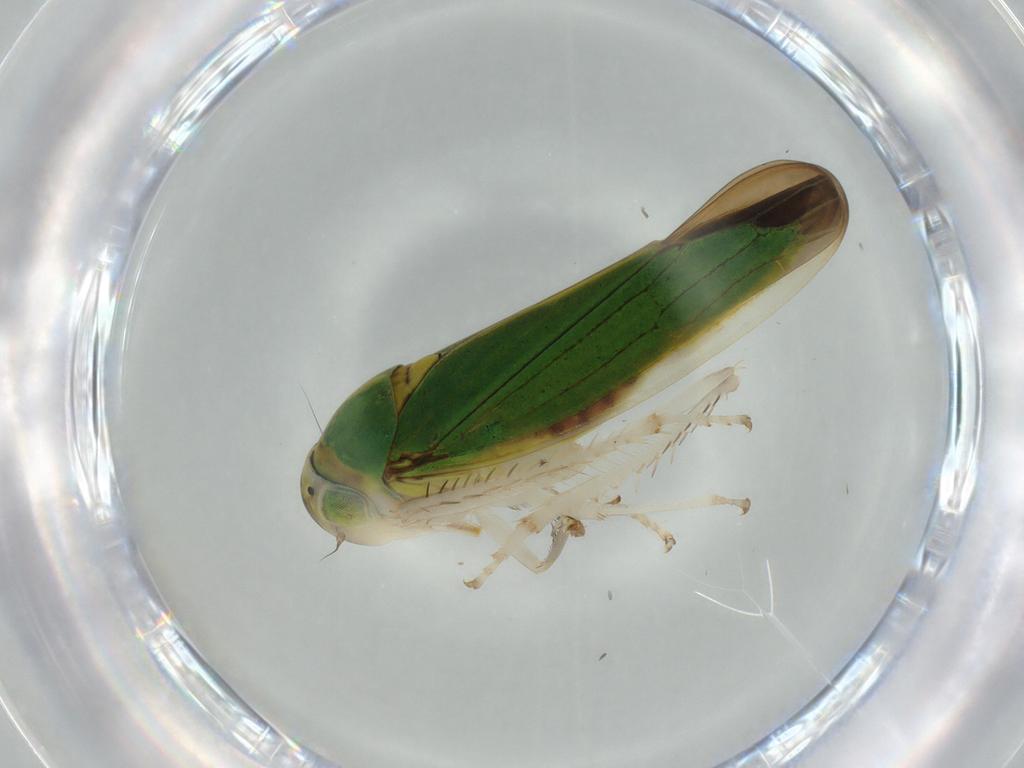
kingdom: Animalia
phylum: Arthropoda
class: Insecta
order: Hemiptera
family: Cicadellidae
